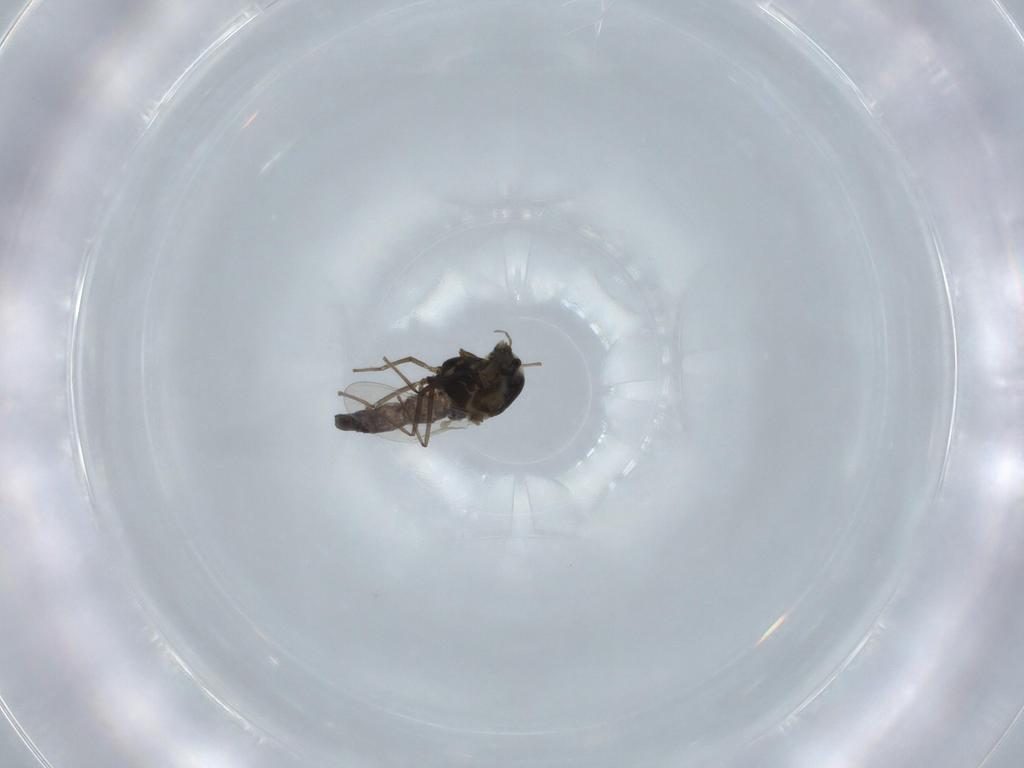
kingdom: Animalia
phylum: Arthropoda
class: Insecta
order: Diptera
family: Chironomidae
